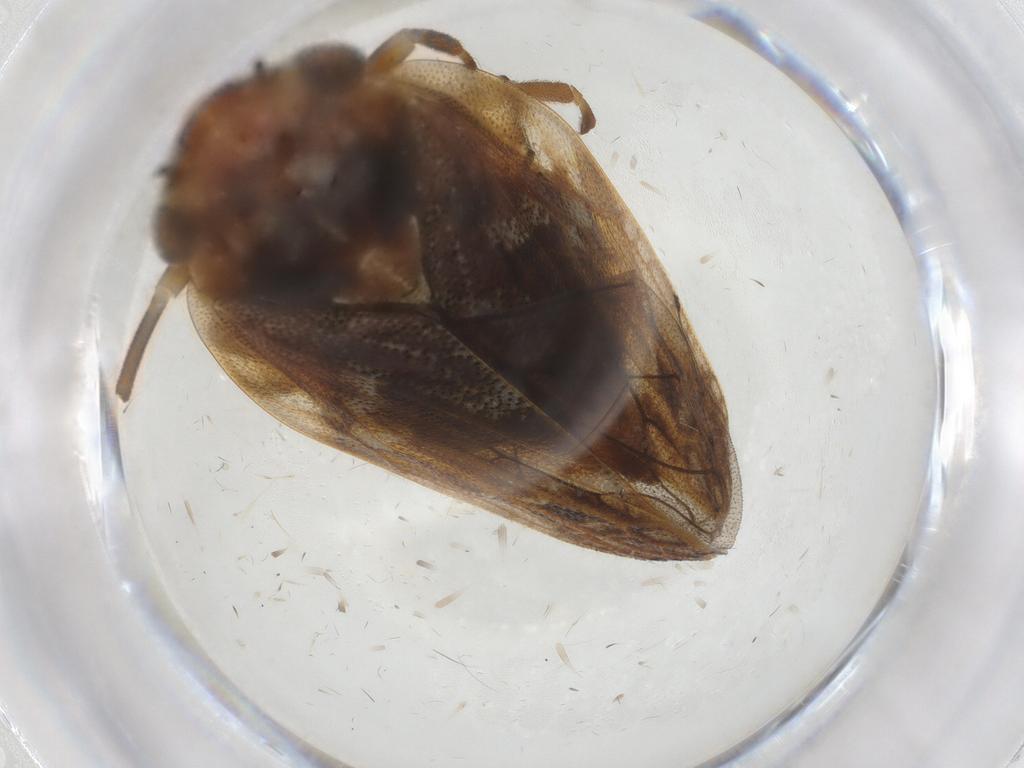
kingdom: Animalia
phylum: Arthropoda
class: Insecta
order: Hemiptera
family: Aphrophoridae
